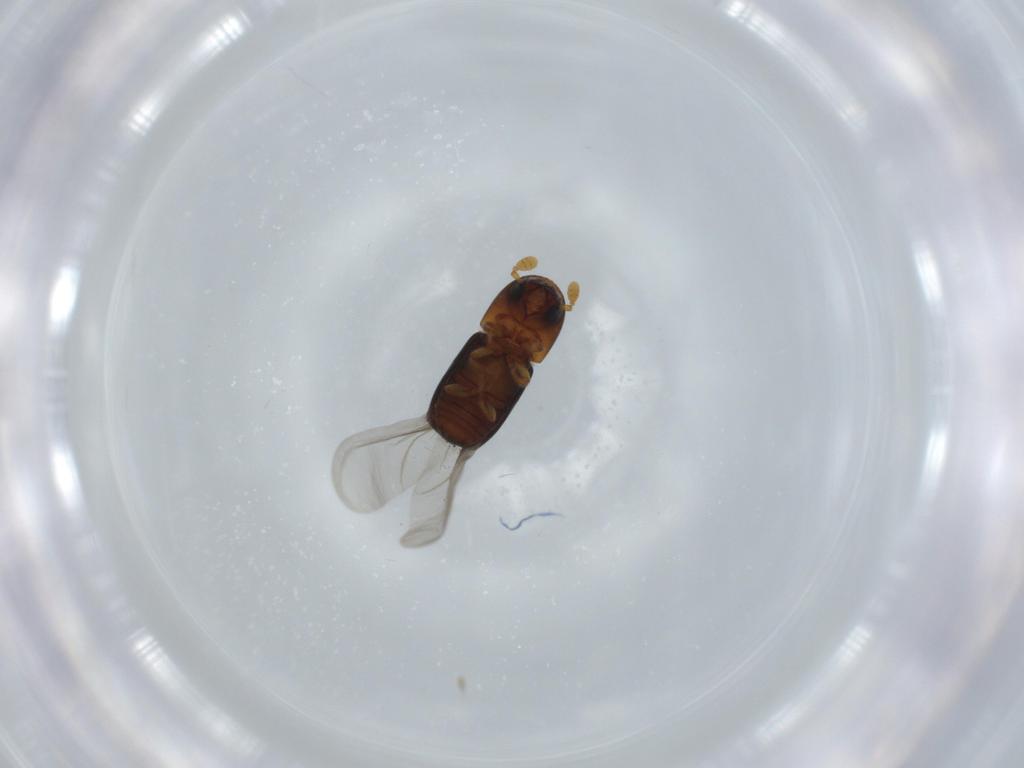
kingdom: Animalia
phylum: Arthropoda
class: Insecta
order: Coleoptera
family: Curculionidae
